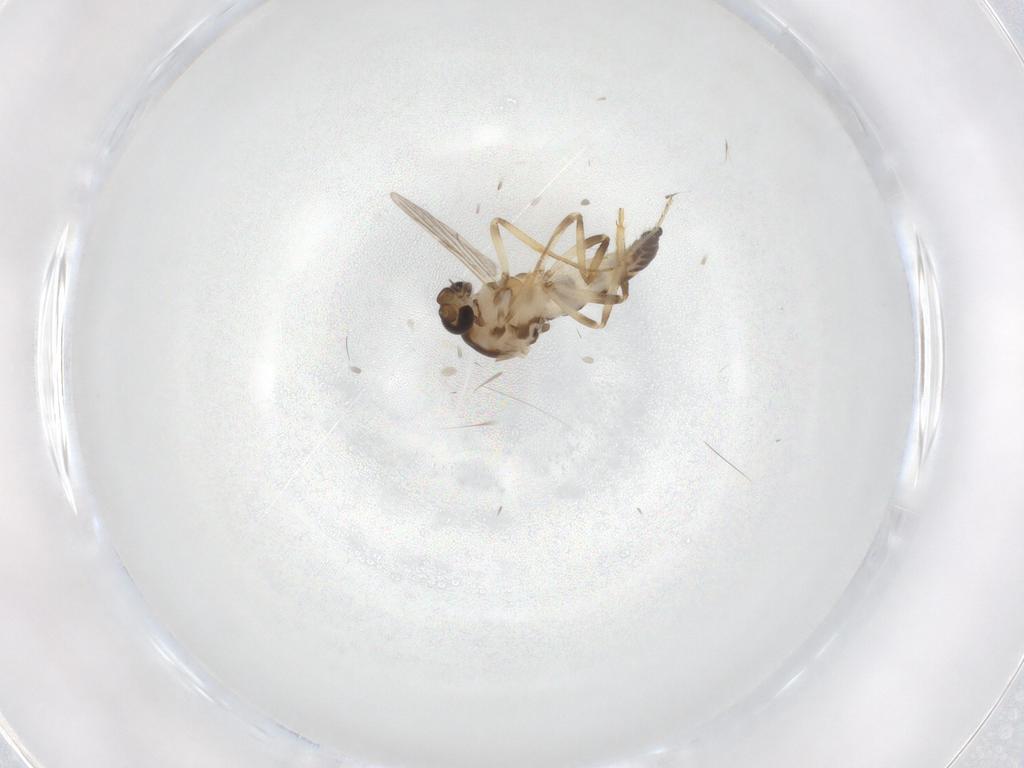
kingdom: Animalia
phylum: Arthropoda
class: Insecta
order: Diptera
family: Ceratopogonidae
